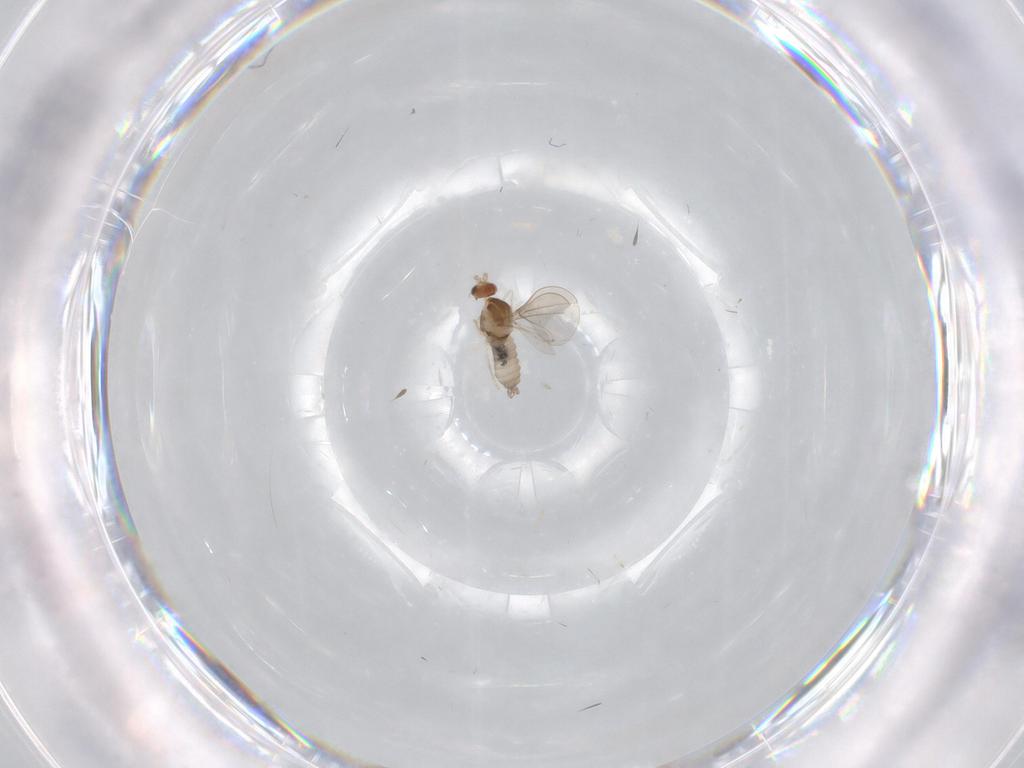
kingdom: Animalia
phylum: Arthropoda
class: Insecta
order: Diptera
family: Cecidomyiidae
